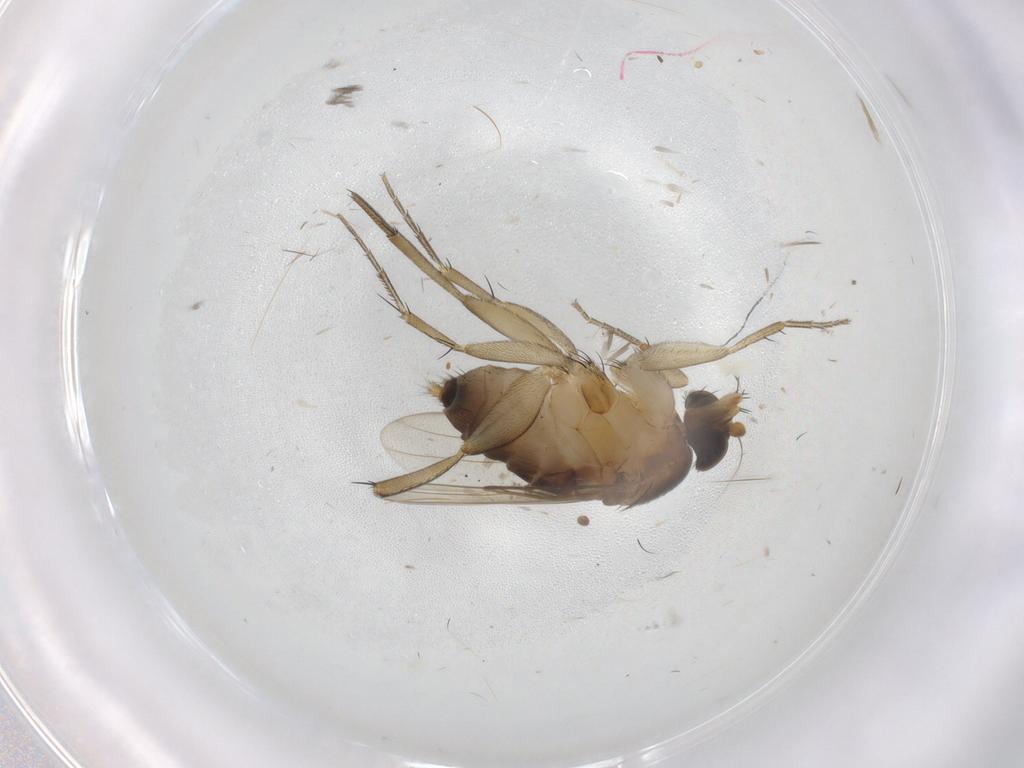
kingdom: Animalia
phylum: Arthropoda
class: Insecta
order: Diptera
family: Phoridae
